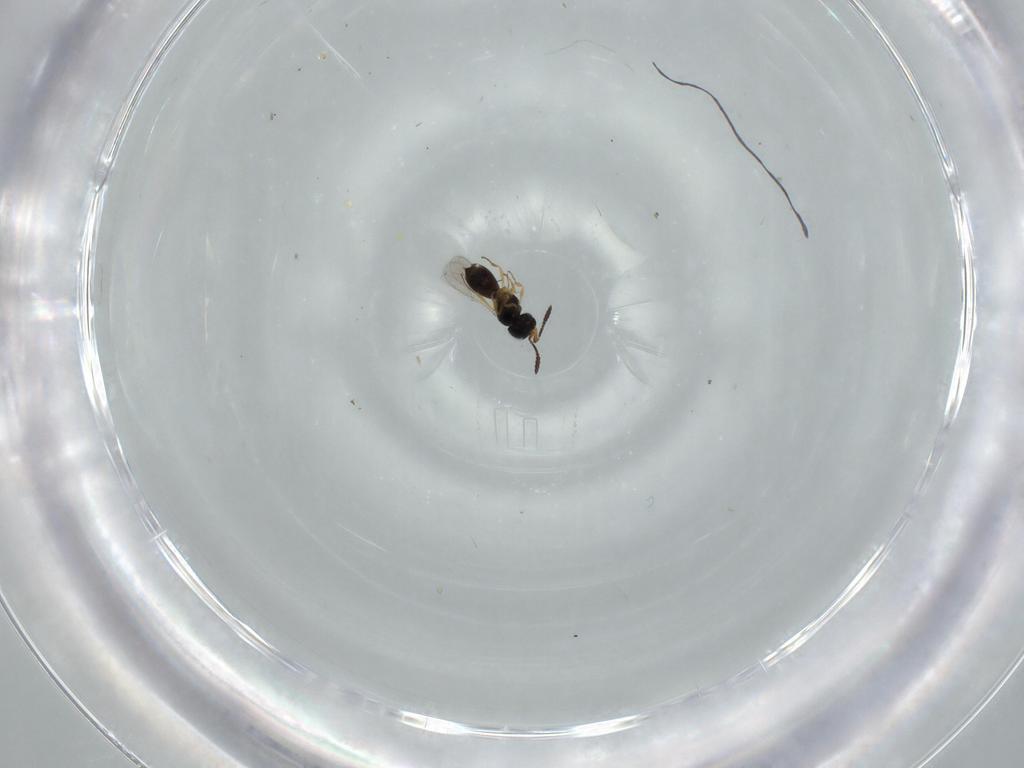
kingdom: Animalia
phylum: Arthropoda
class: Insecta
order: Hymenoptera
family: Scelionidae
